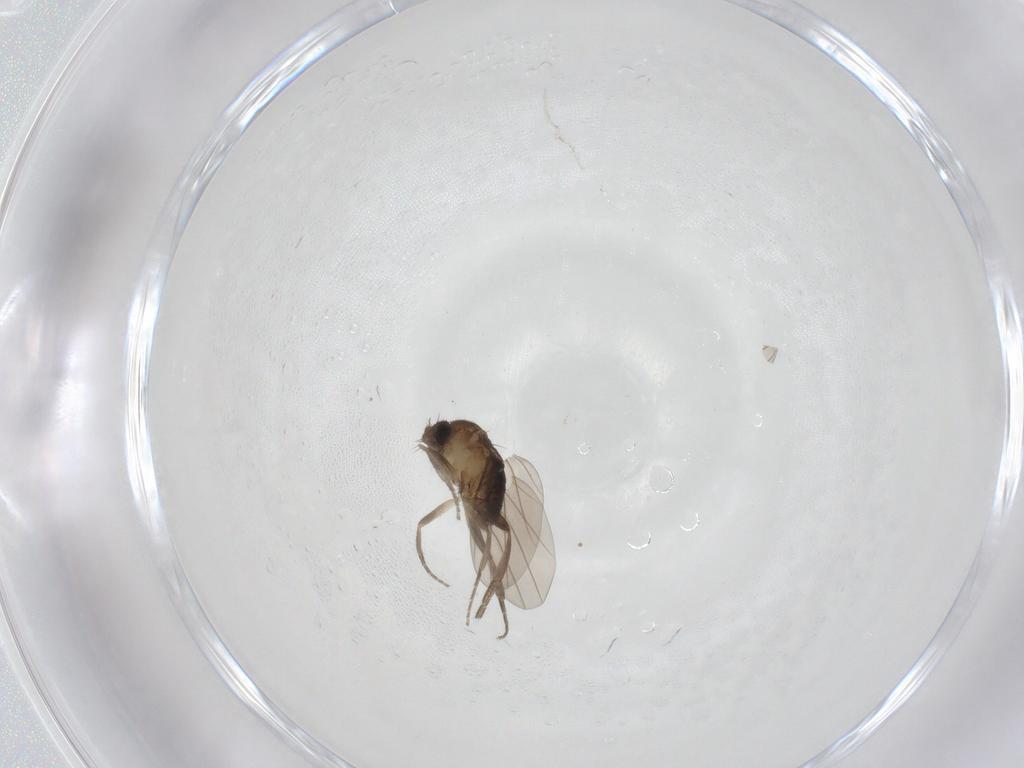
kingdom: Animalia
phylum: Arthropoda
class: Insecta
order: Diptera
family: Phoridae
